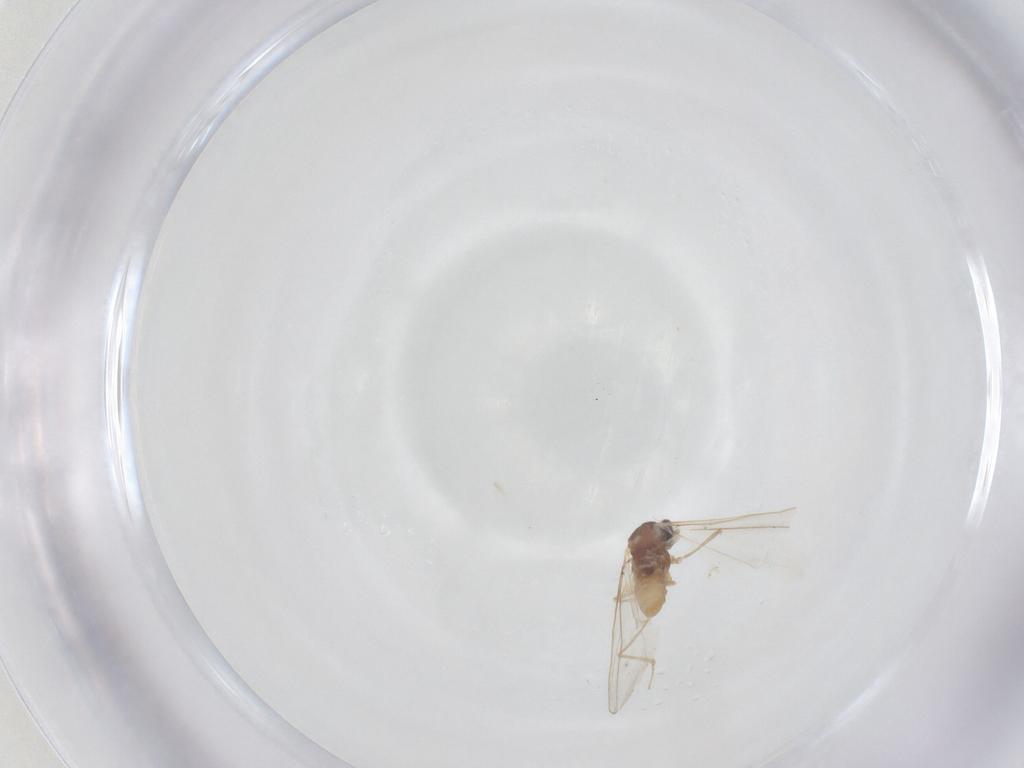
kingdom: Animalia
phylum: Arthropoda
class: Insecta
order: Diptera
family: Cecidomyiidae
